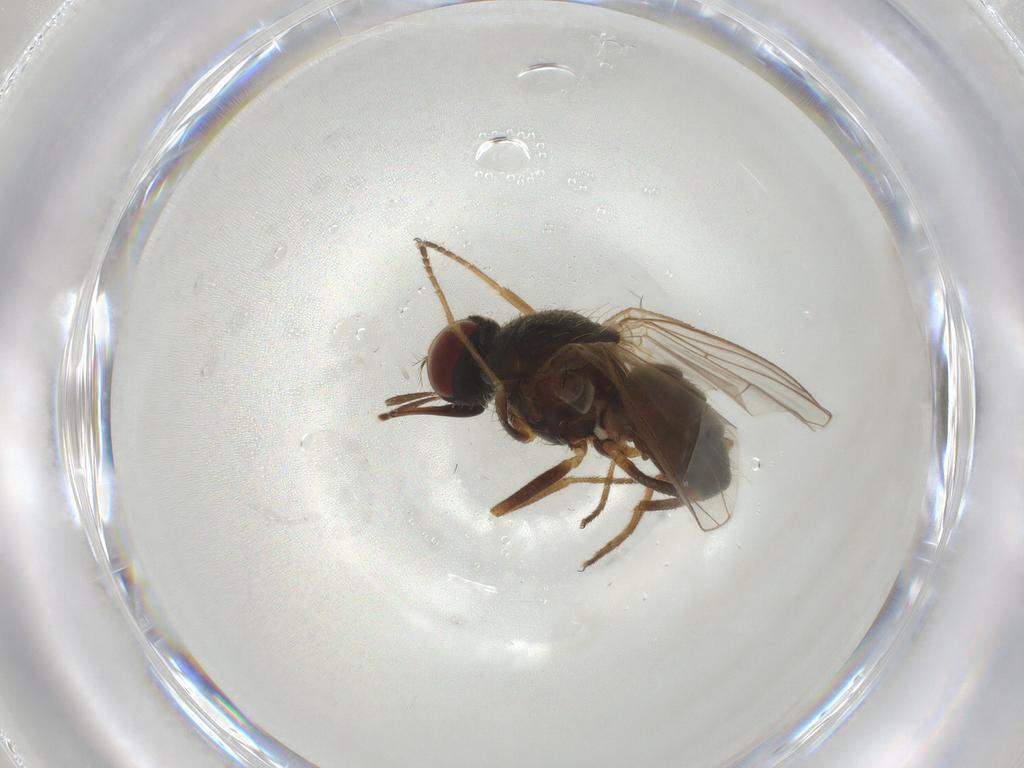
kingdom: Animalia
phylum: Arthropoda
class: Insecta
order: Diptera
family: Muscidae
